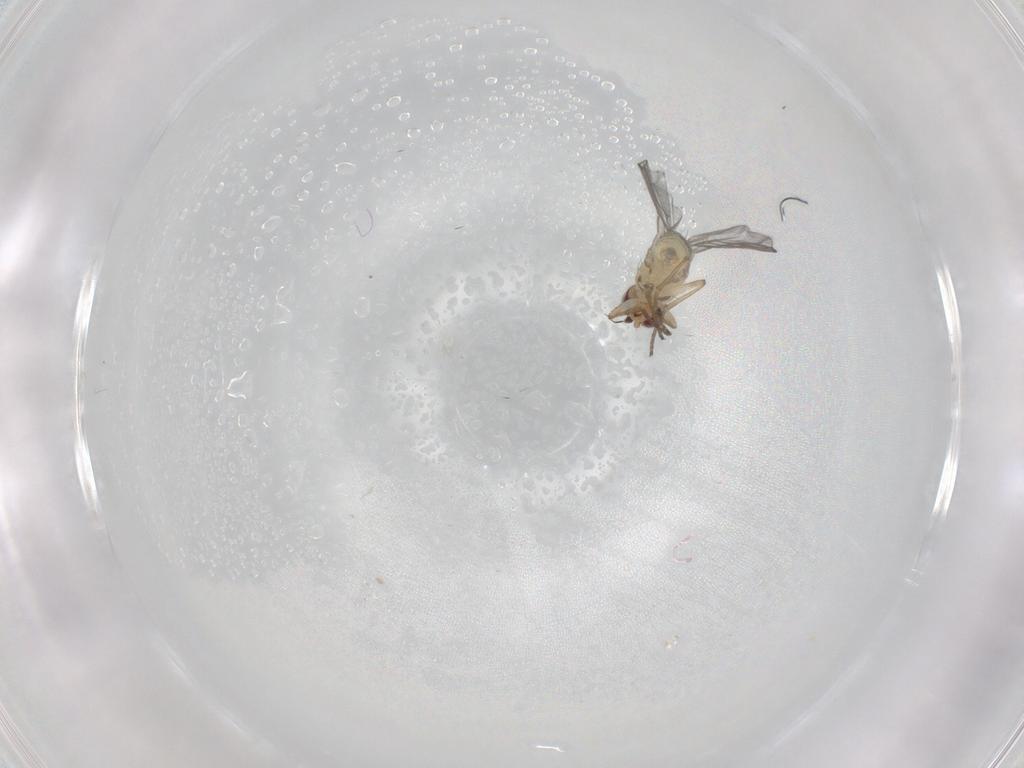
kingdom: Animalia
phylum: Arthropoda
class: Insecta
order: Diptera
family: Agromyzidae
